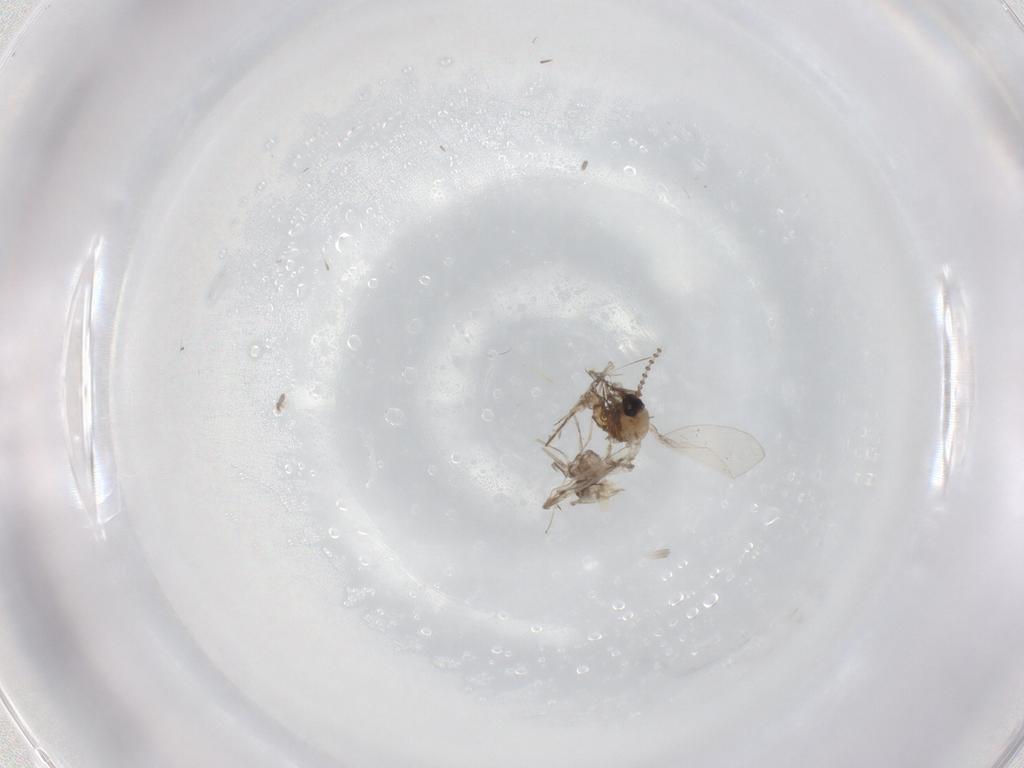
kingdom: Animalia
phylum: Arthropoda
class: Insecta
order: Diptera
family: Psychodidae
